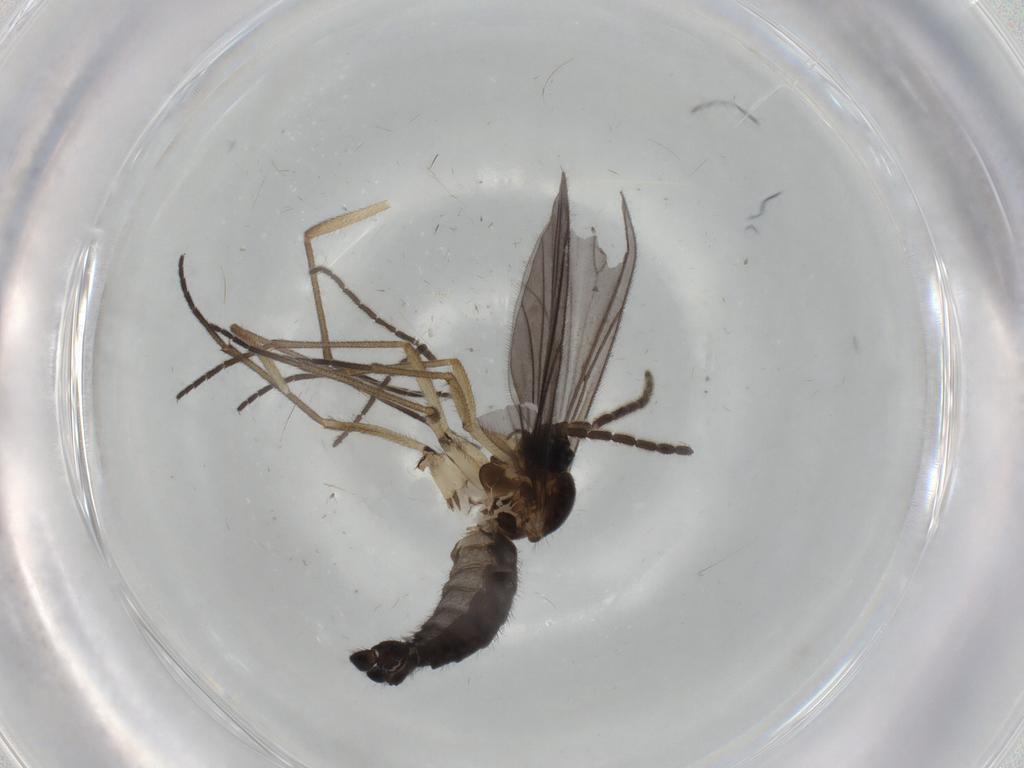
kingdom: Animalia
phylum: Arthropoda
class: Insecta
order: Diptera
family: Sciaridae
